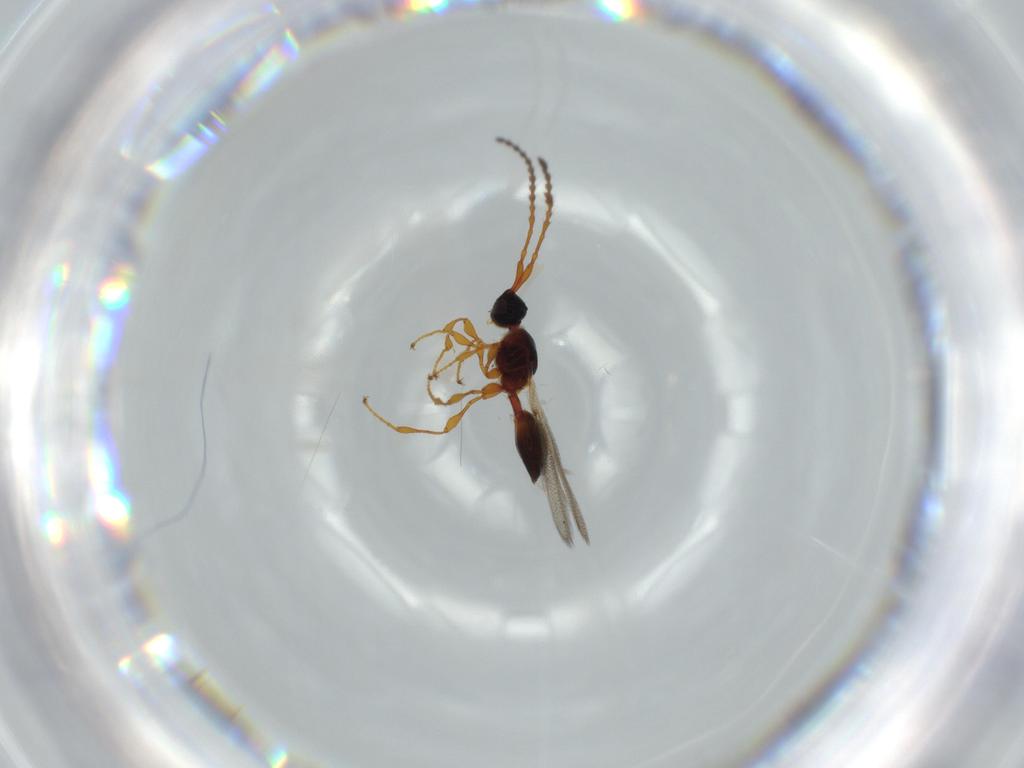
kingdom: Animalia
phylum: Arthropoda
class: Insecta
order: Hymenoptera
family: Diapriidae
